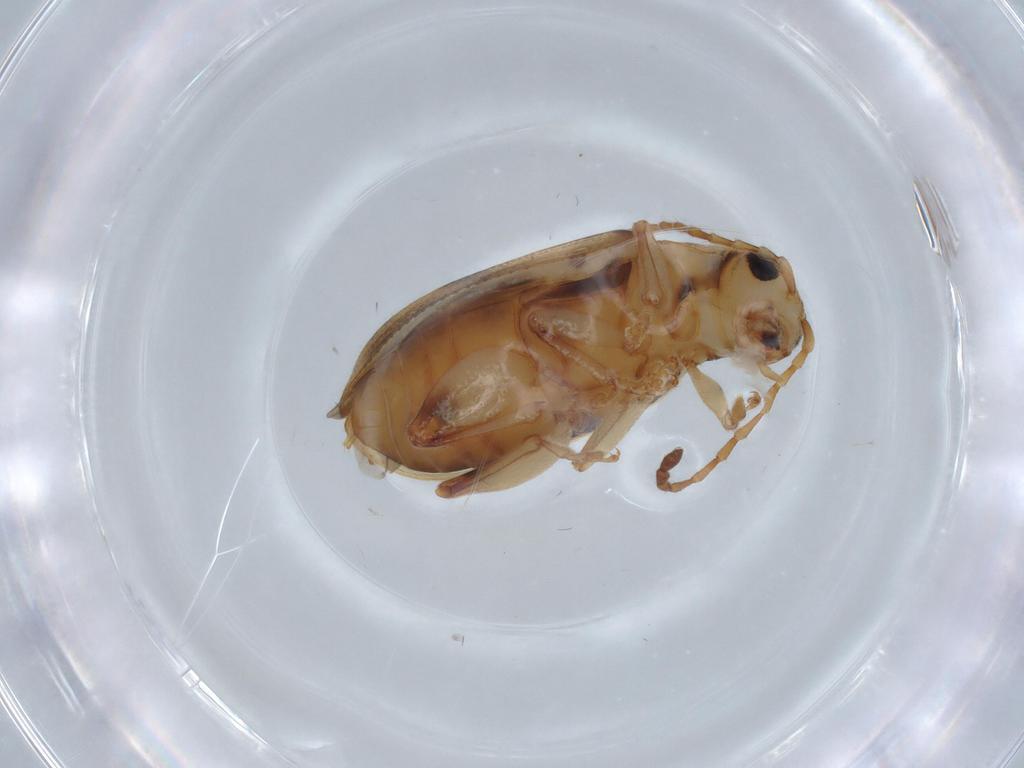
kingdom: Animalia
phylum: Arthropoda
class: Insecta
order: Coleoptera
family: Chrysomelidae
